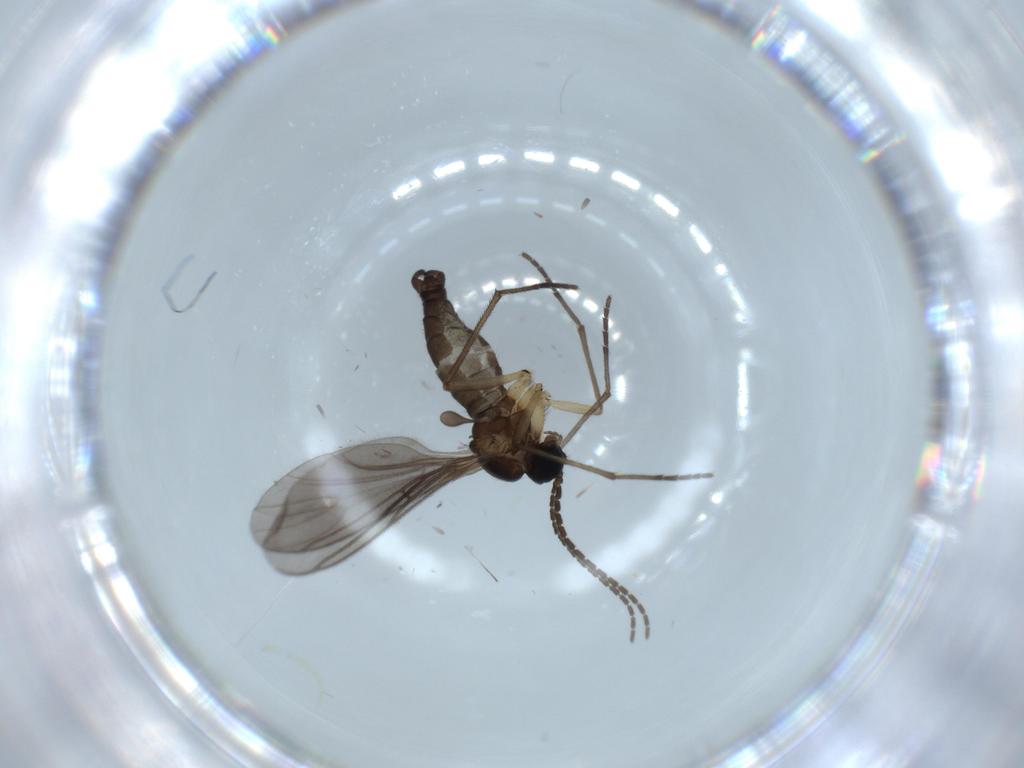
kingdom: Animalia
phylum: Arthropoda
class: Insecta
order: Diptera
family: Sciaridae
